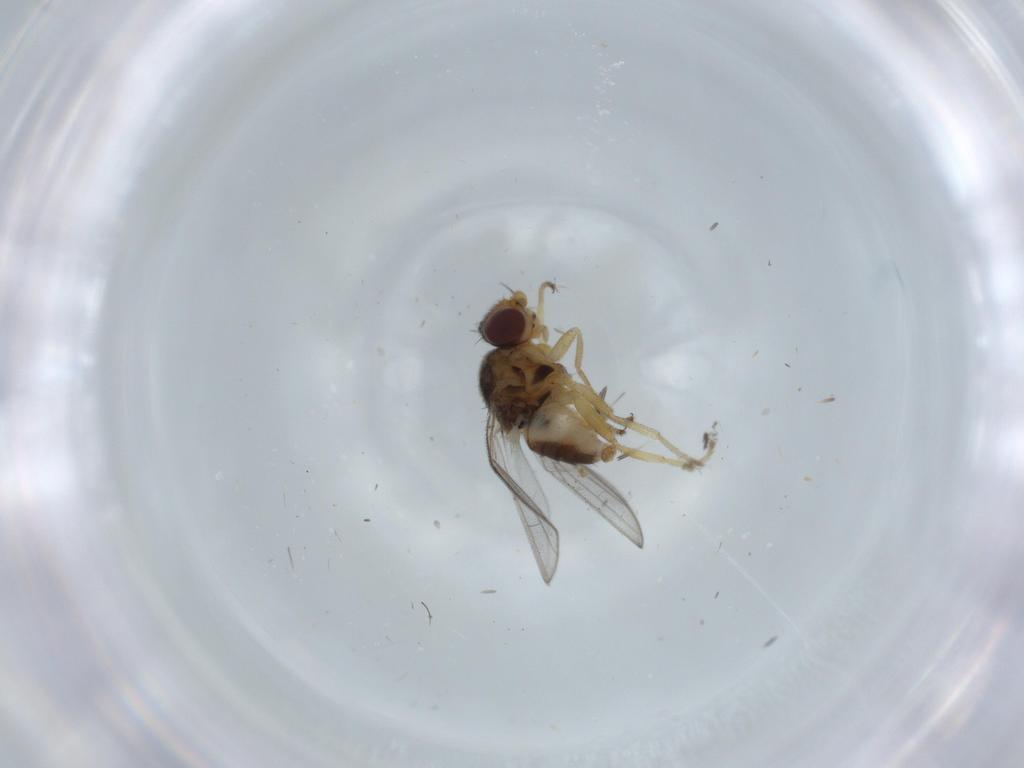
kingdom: Animalia
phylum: Arthropoda
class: Insecta
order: Diptera
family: Chloropidae
